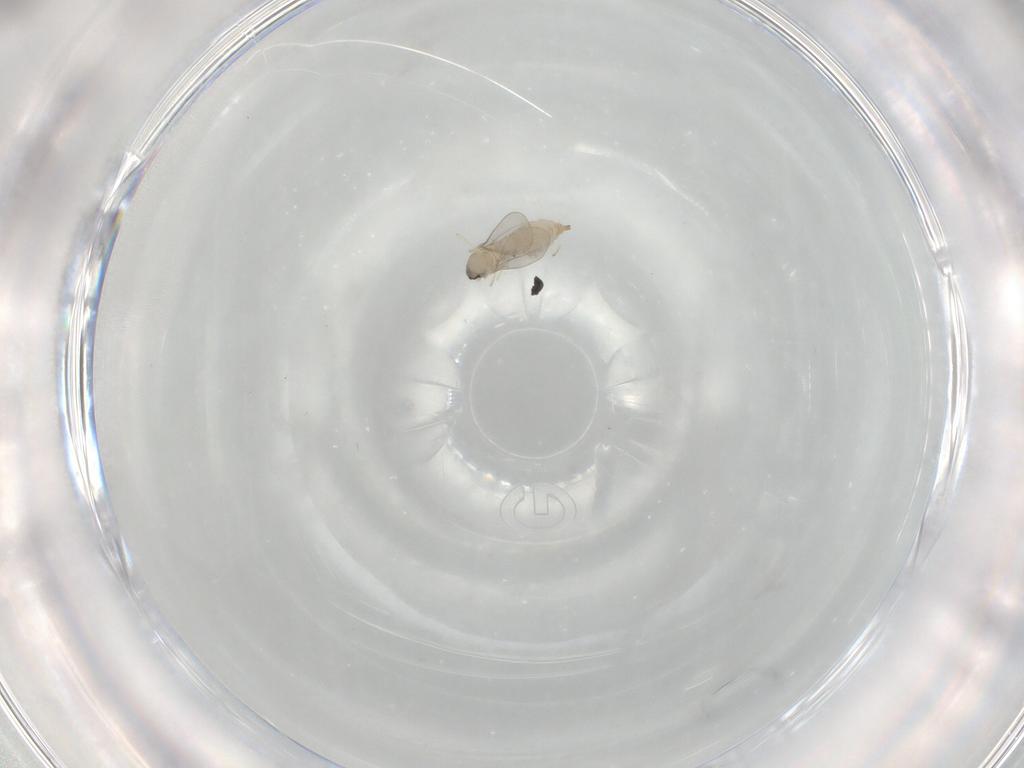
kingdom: Animalia
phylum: Arthropoda
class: Insecta
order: Diptera
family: Cecidomyiidae
